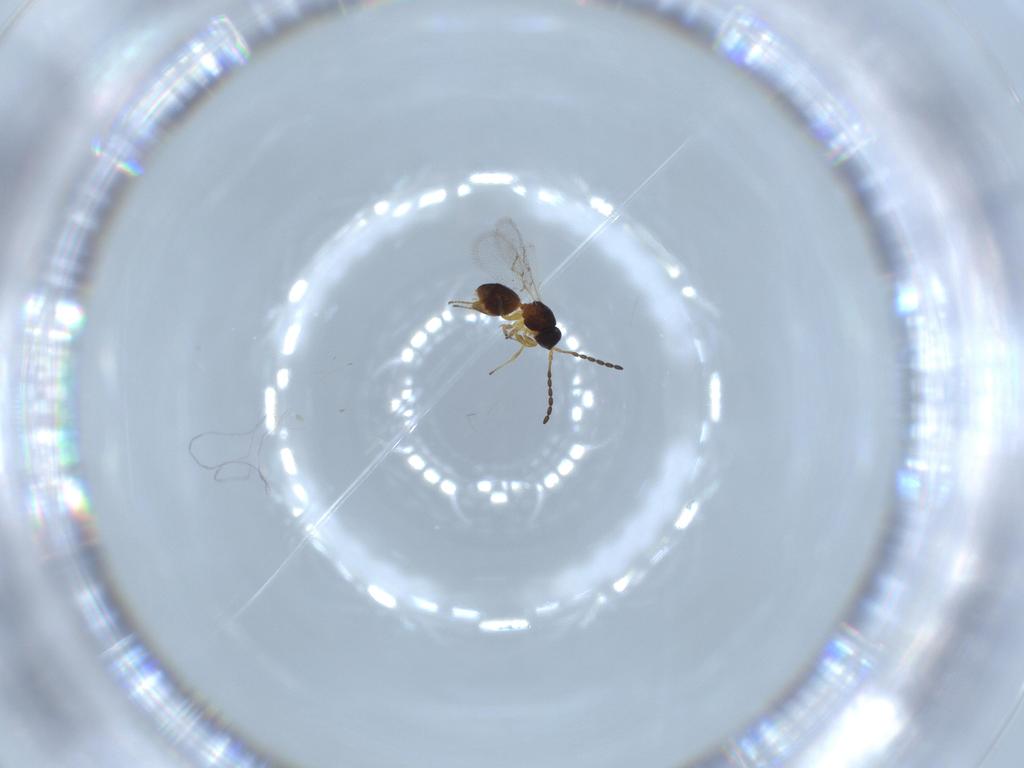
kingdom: Animalia
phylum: Arthropoda
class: Insecta
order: Hymenoptera
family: Figitidae
